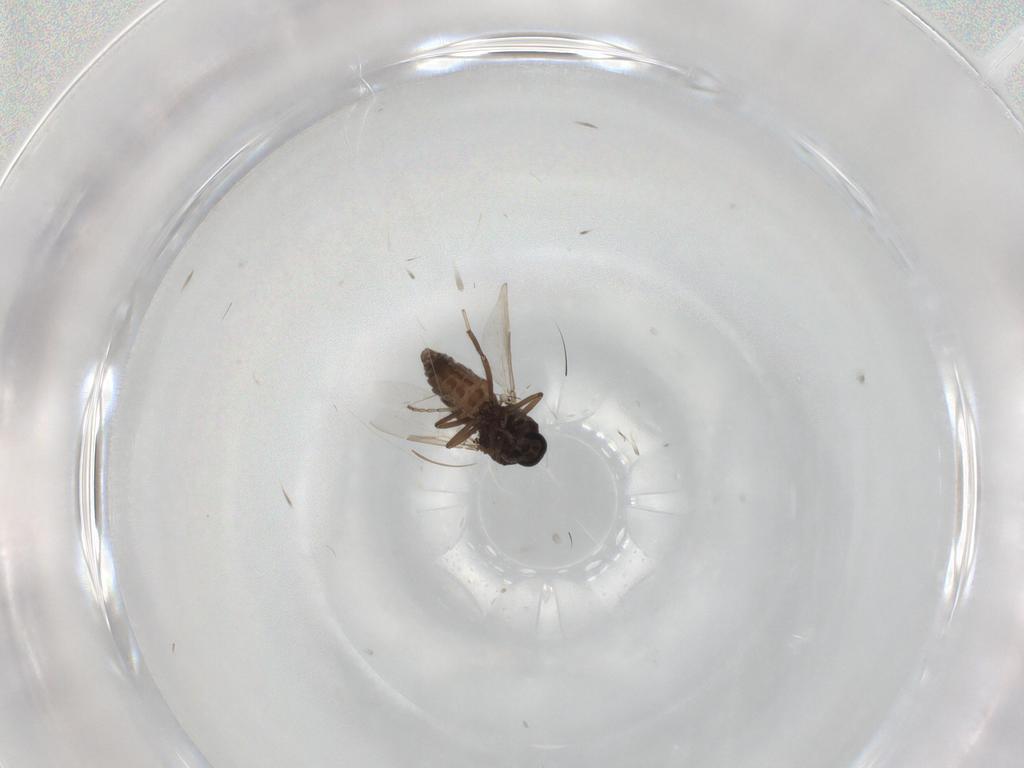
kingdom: Animalia
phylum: Arthropoda
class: Insecta
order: Diptera
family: Ceratopogonidae
